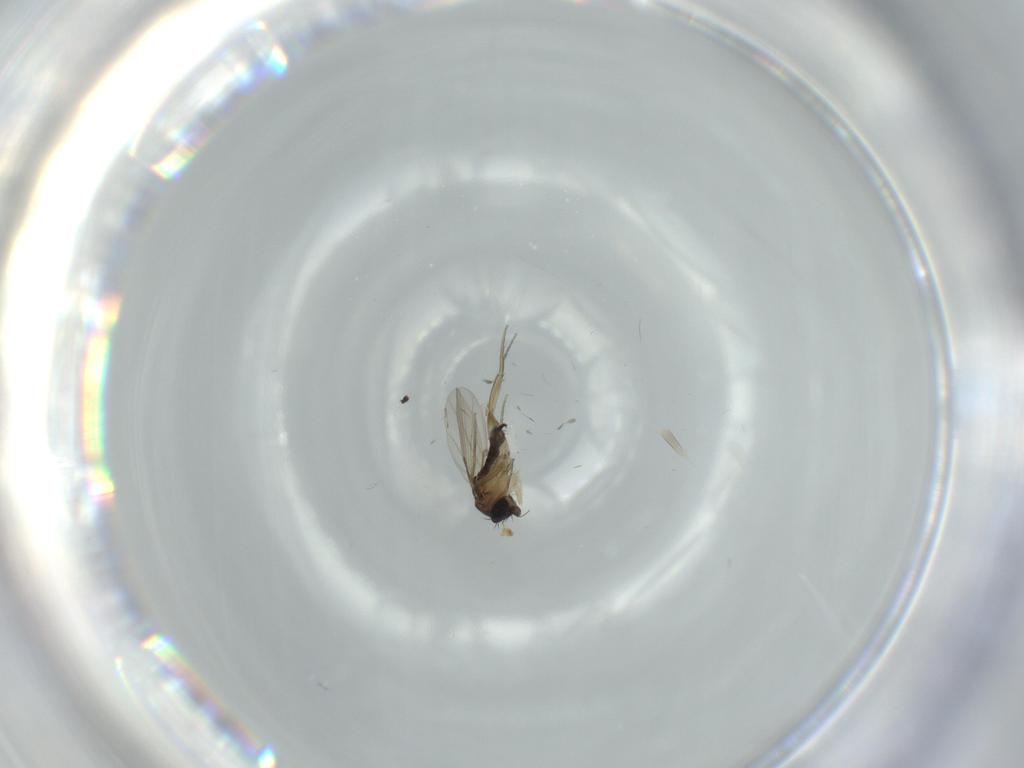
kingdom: Animalia
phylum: Arthropoda
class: Insecta
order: Diptera
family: Phoridae
